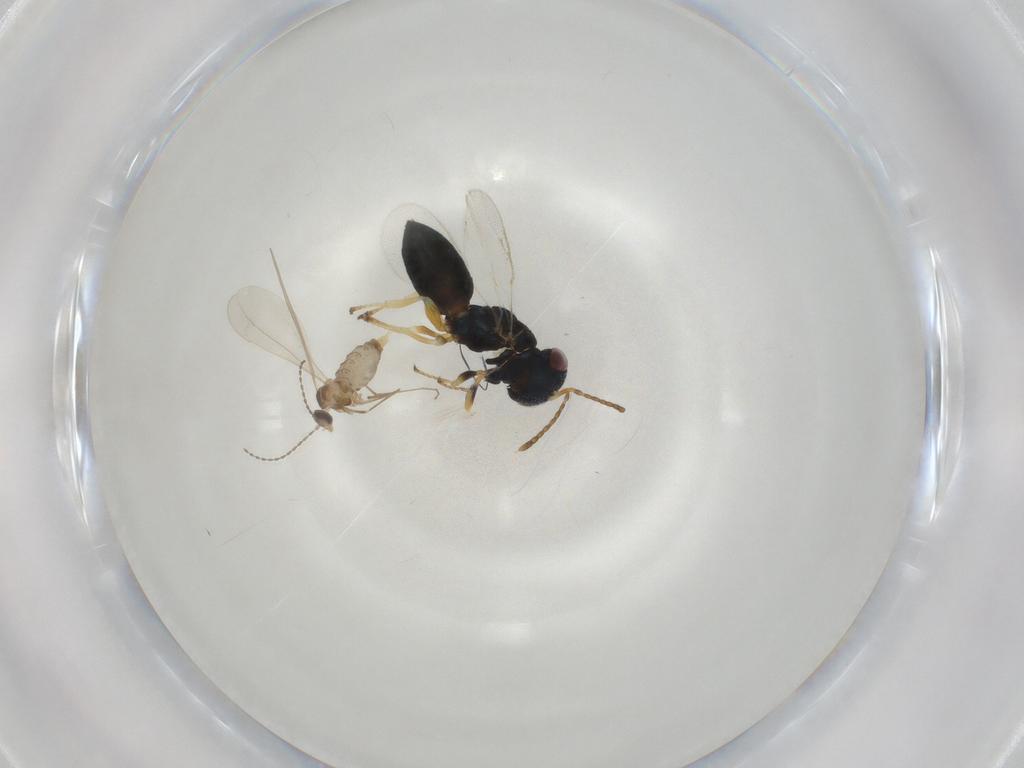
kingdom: Animalia
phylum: Arthropoda
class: Insecta
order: Hymenoptera
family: Pteromalidae
